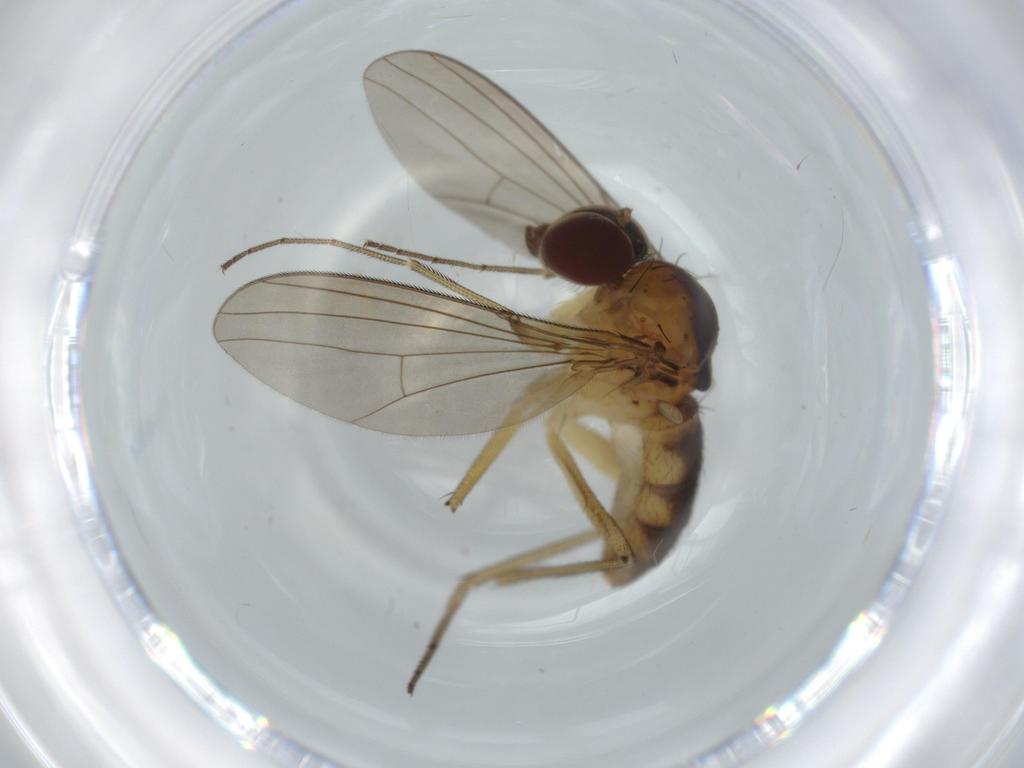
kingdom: Animalia
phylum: Arthropoda
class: Insecta
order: Diptera
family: Dolichopodidae
